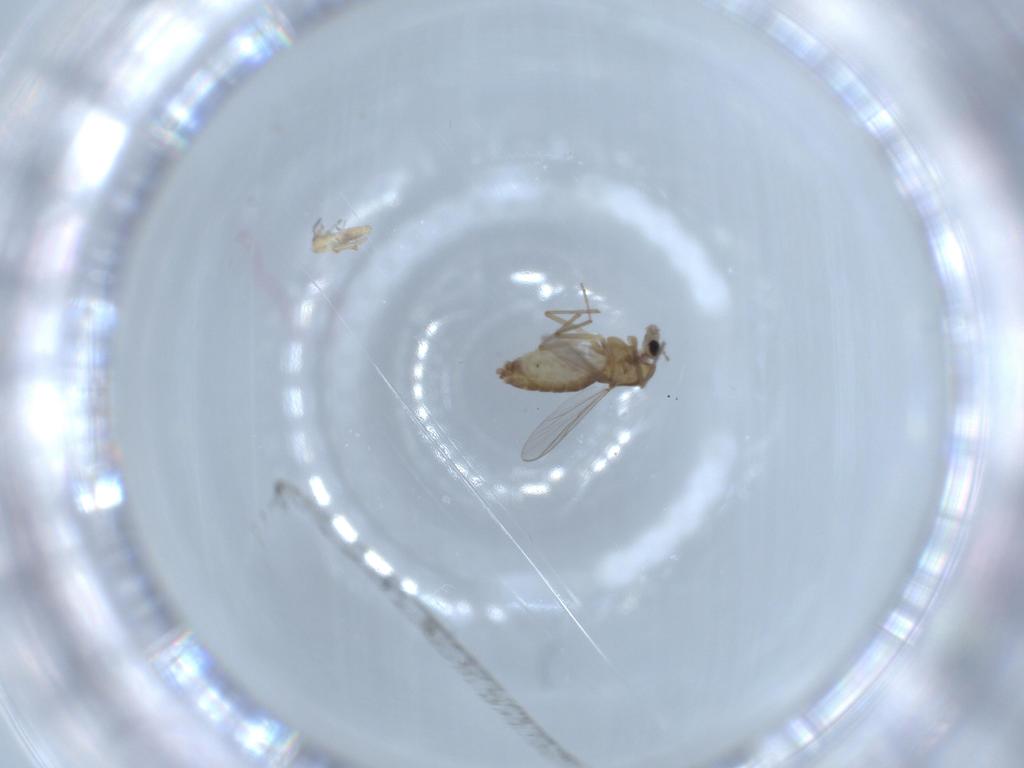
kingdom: Animalia
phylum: Arthropoda
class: Insecta
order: Diptera
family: Chironomidae
